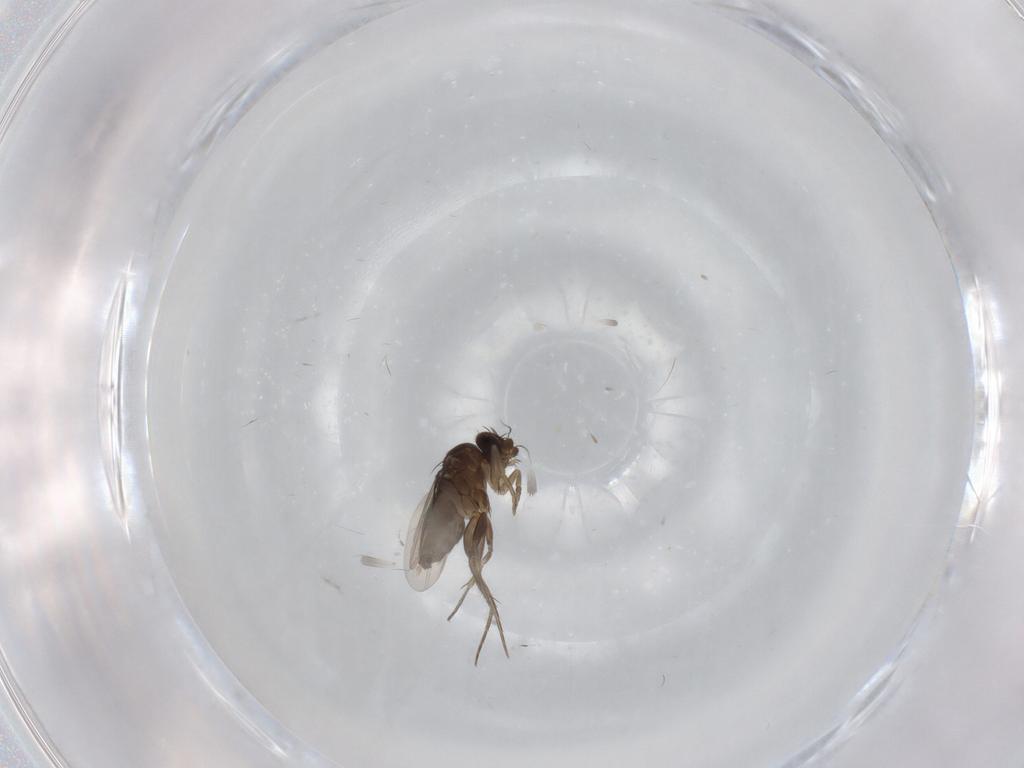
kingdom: Animalia
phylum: Arthropoda
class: Insecta
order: Diptera
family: Phoridae
